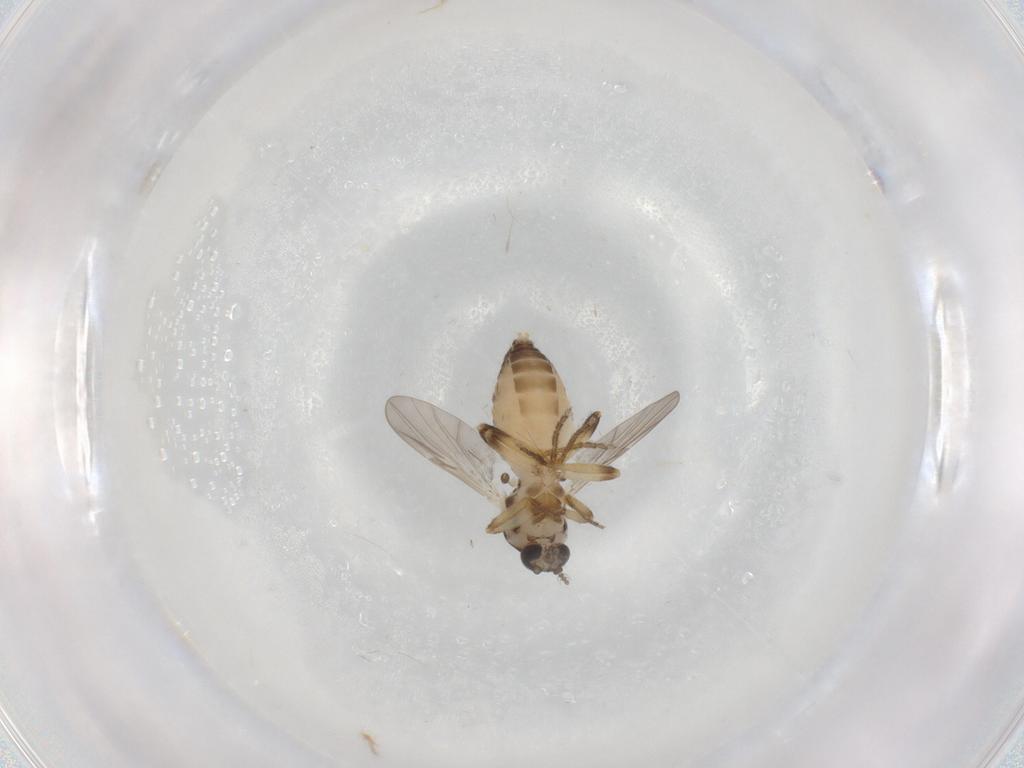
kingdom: Animalia
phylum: Arthropoda
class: Insecta
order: Diptera
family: Ceratopogonidae
